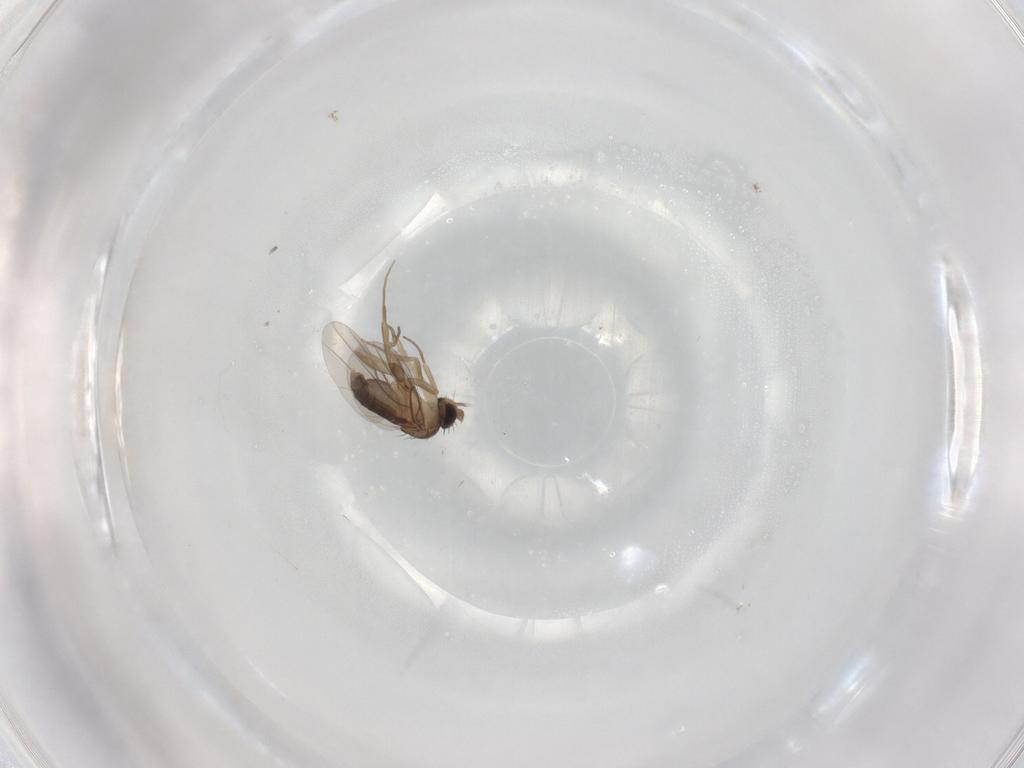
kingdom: Animalia
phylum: Arthropoda
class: Insecta
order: Diptera
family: Phoridae
